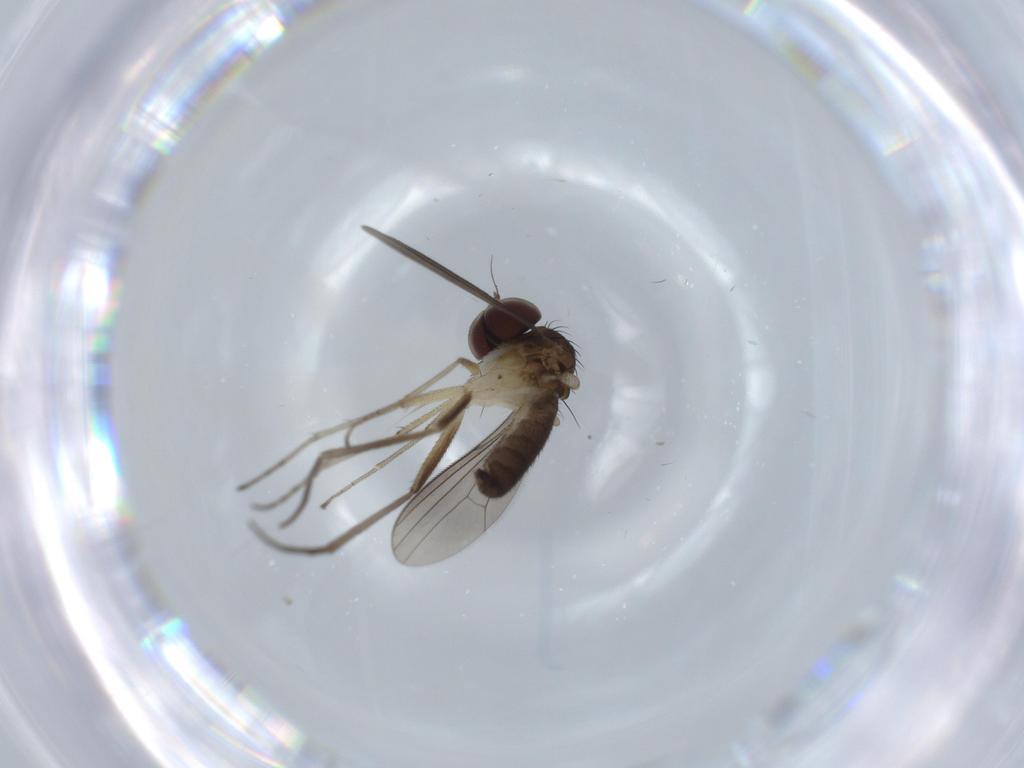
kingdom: Animalia
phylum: Arthropoda
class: Insecta
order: Diptera
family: Dolichopodidae
